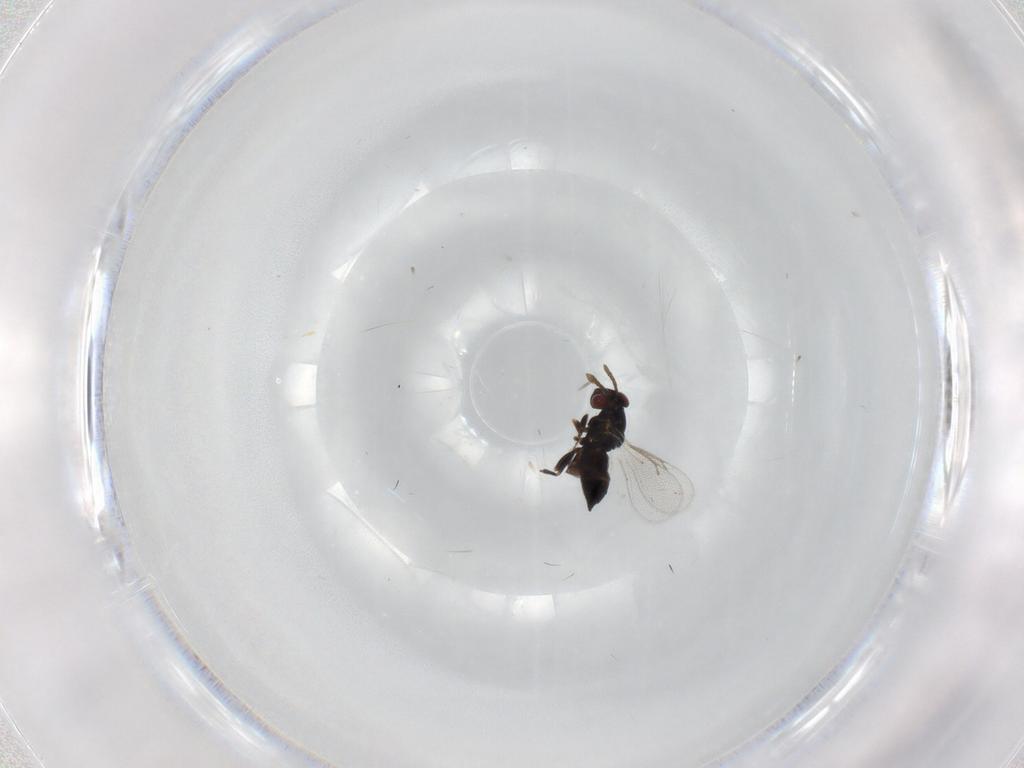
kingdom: Animalia
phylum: Arthropoda
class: Insecta
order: Hymenoptera
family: Eulophidae
